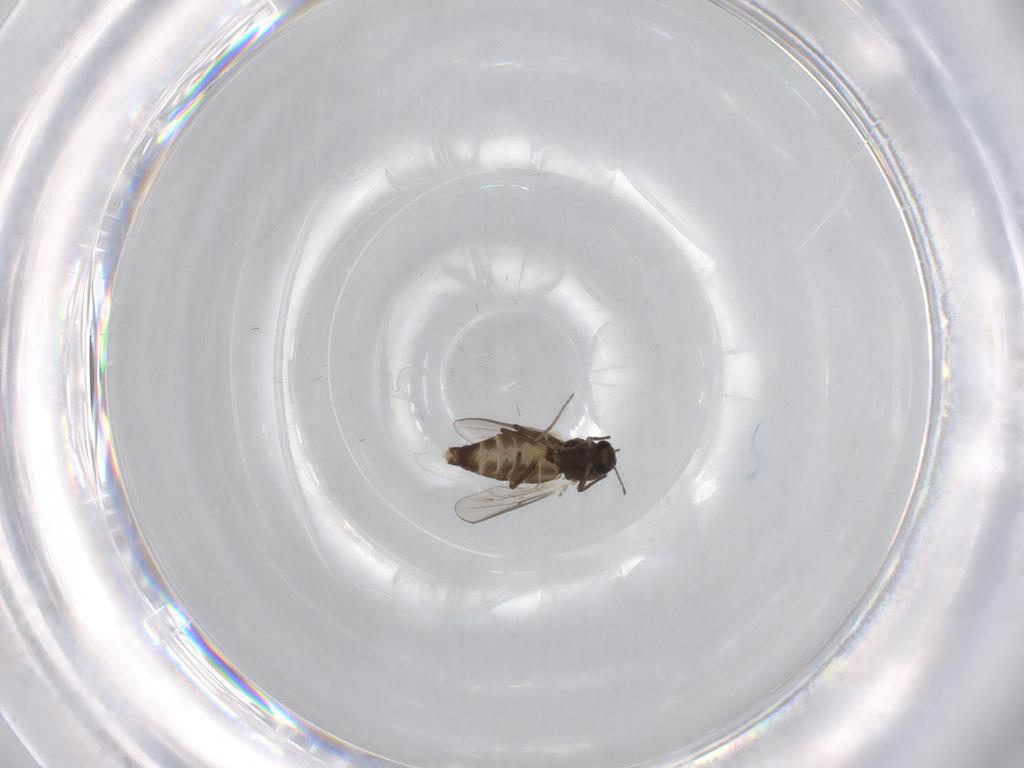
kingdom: Animalia
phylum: Arthropoda
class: Insecta
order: Diptera
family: Chironomidae
